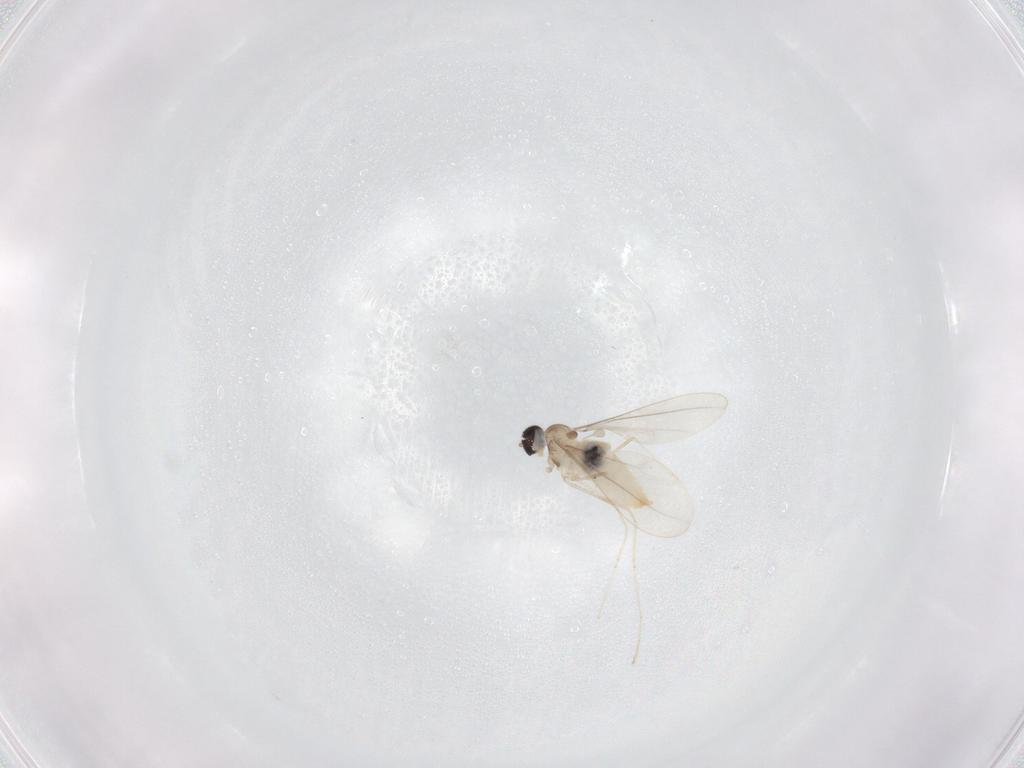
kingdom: Animalia
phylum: Arthropoda
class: Insecta
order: Diptera
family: Cecidomyiidae
